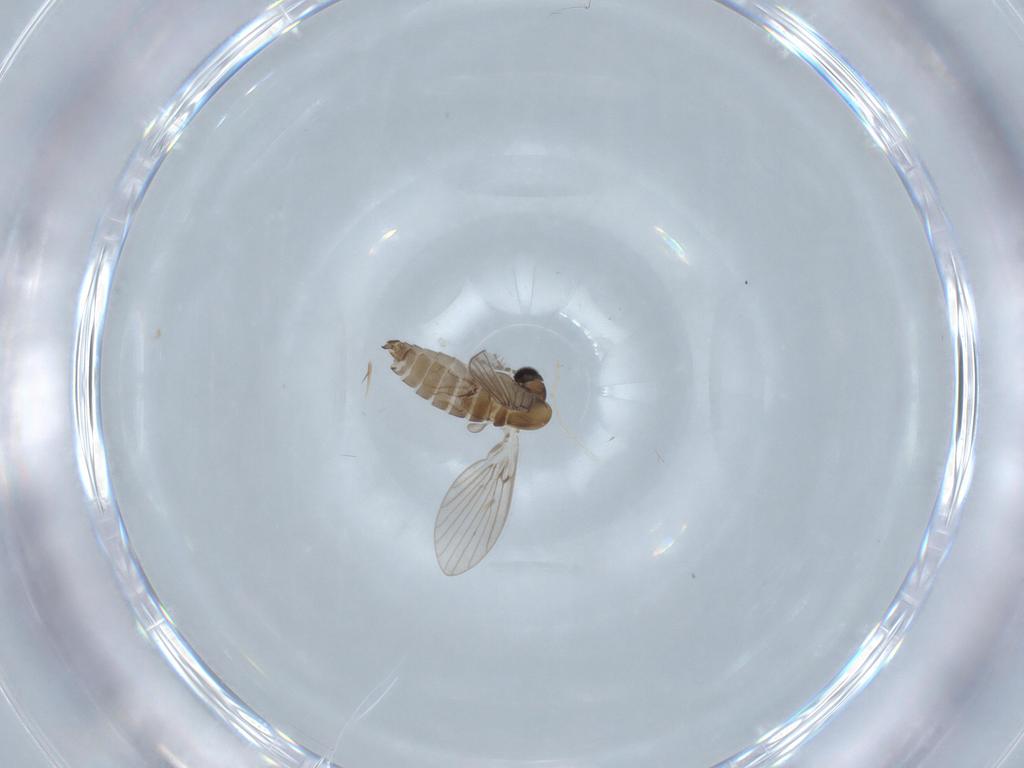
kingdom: Animalia
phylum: Arthropoda
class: Insecta
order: Diptera
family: Psychodidae
